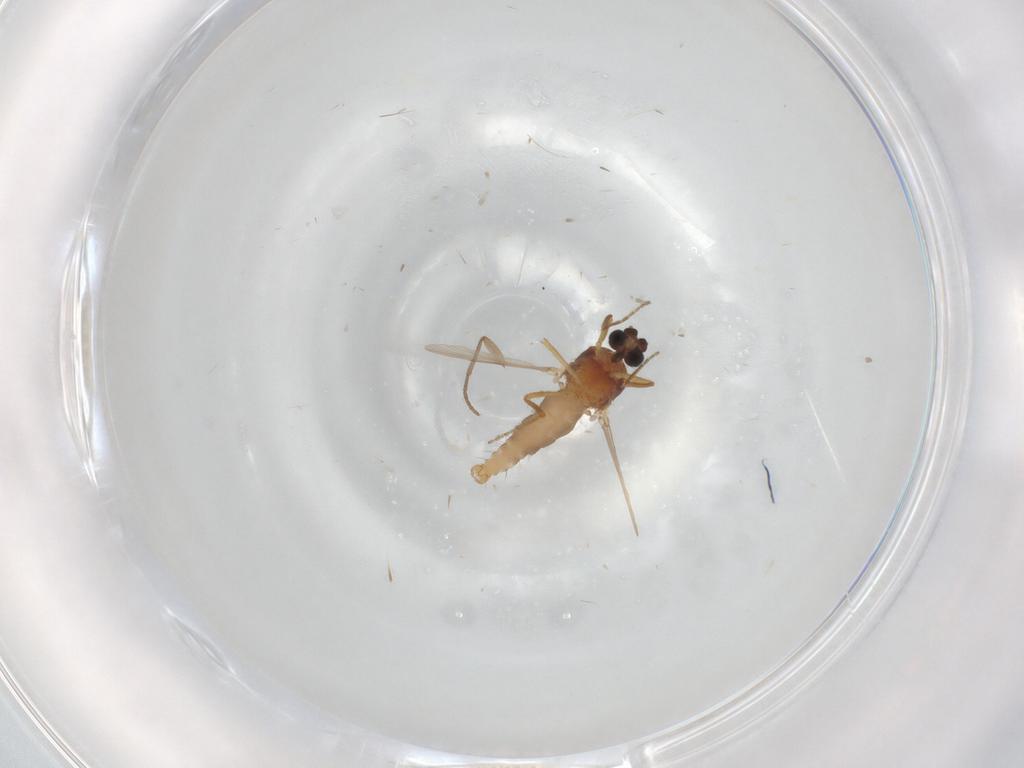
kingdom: Animalia
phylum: Arthropoda
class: Insecta
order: Diptera
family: Sciaridae
